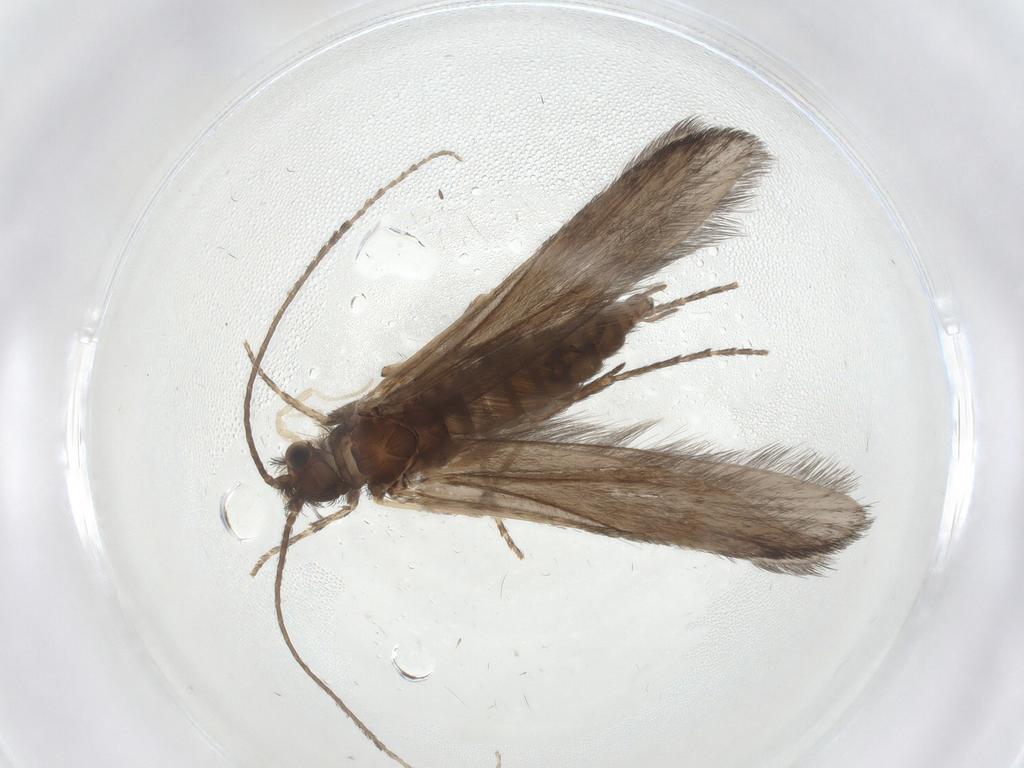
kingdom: Animalia
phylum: Arthropoda
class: Insecta
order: Trichoptera
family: Xiphocentronidae
